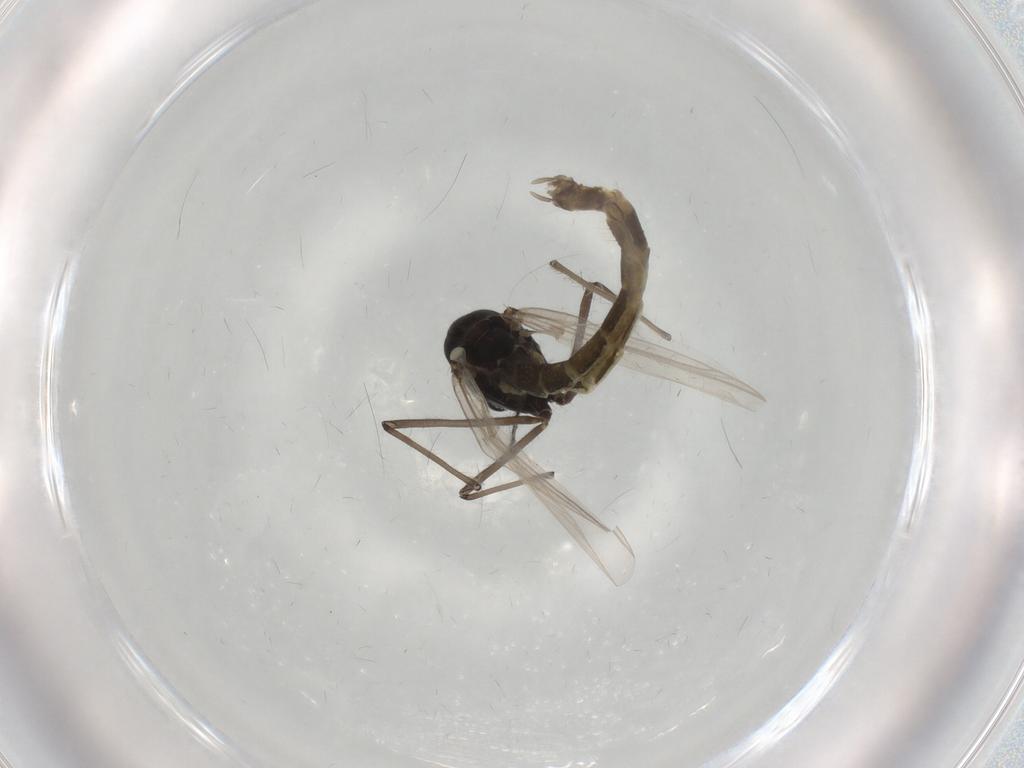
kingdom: Animalia
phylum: Arthropoda
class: Insecta
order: Diptera
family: Chironomidae
